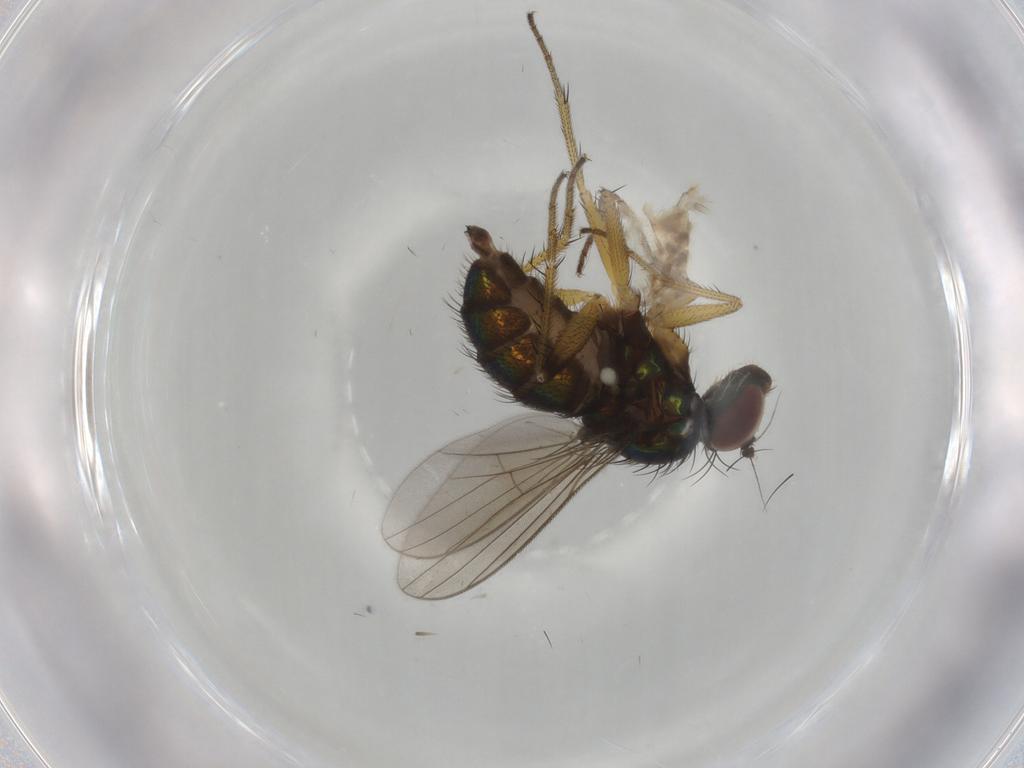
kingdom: Animalia
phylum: Arthropoda
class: Insecta
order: Diptera
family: Dolichopodidae
